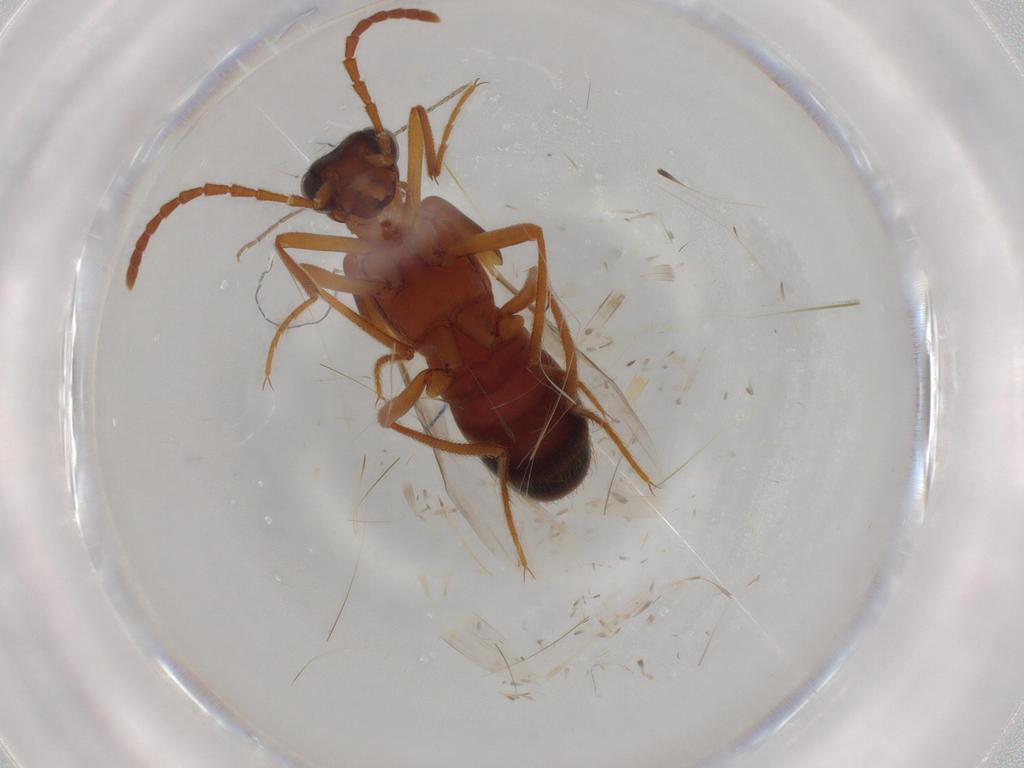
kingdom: Animalia
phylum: Arthropoda
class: Insecta
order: Coleoptera
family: Staphylinidae
